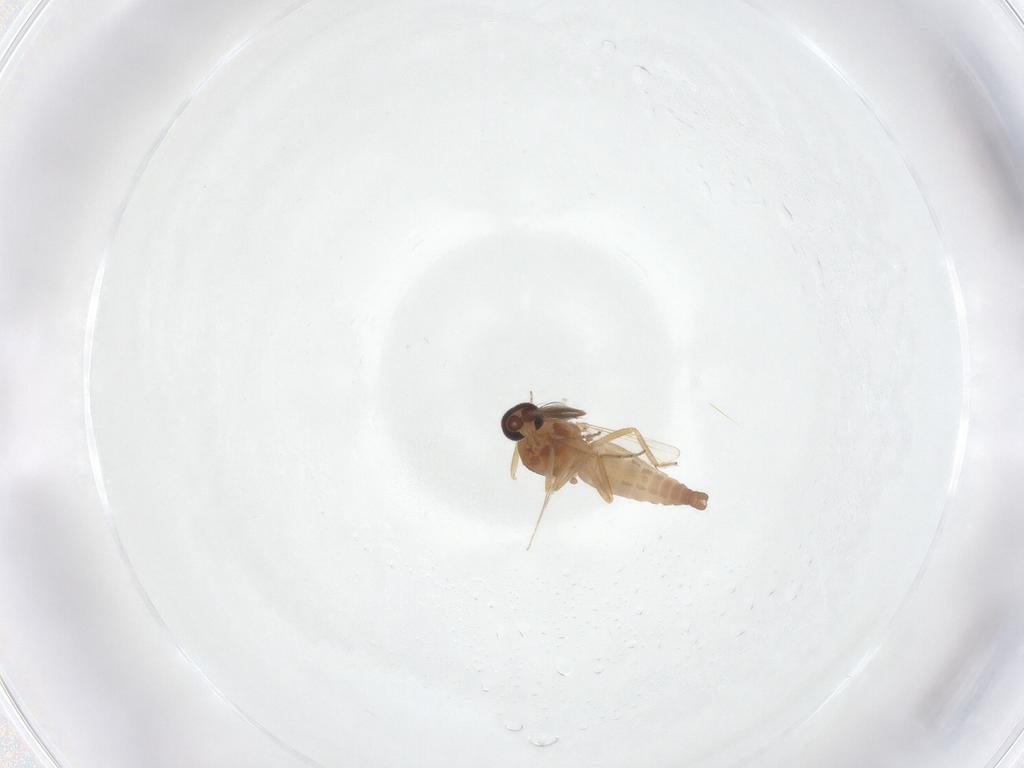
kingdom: Animalia
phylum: Arthropoda
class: Insecta
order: Diptera
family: Ceratopogonidae
